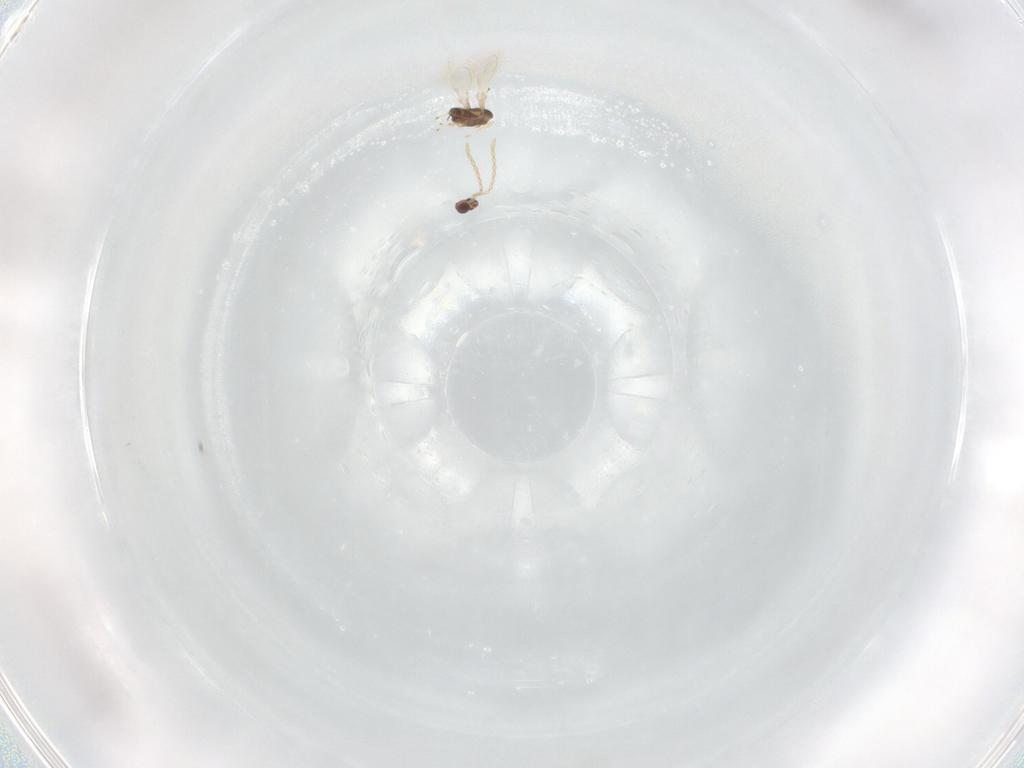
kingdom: Animalia
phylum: Arthropoda
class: Insecta
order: Hymenoptera
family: Mymaridae
